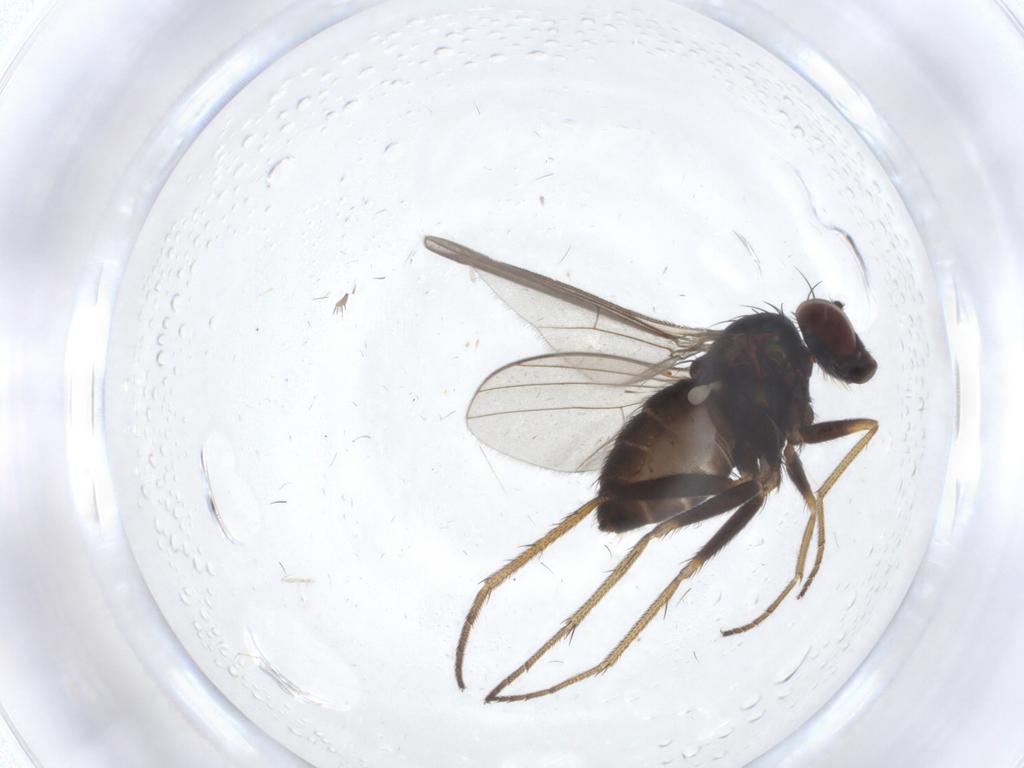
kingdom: Animalia
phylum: Arthropoda
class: Insecta
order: Diptera
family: Dolichopodidae
